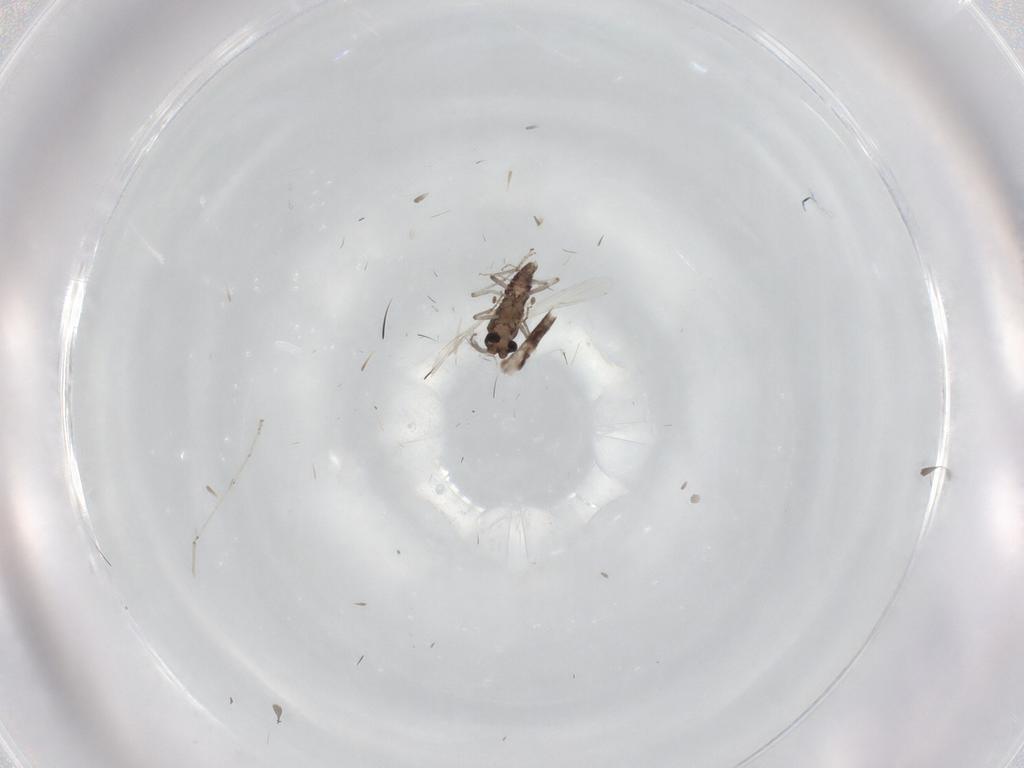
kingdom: Animalia
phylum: Arthropoda
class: Insecta
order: Diptera
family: Ceratopogonidae
